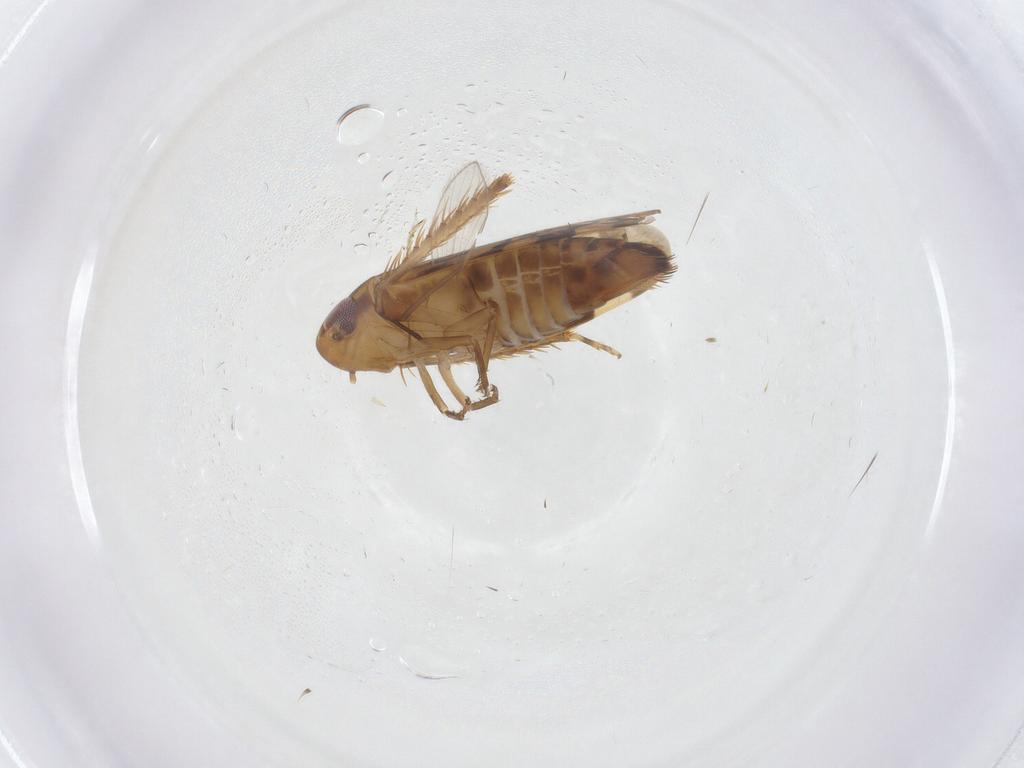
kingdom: Animalia
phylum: Arthropoda
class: Insecta
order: Hemiptera
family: Cicadellidae
